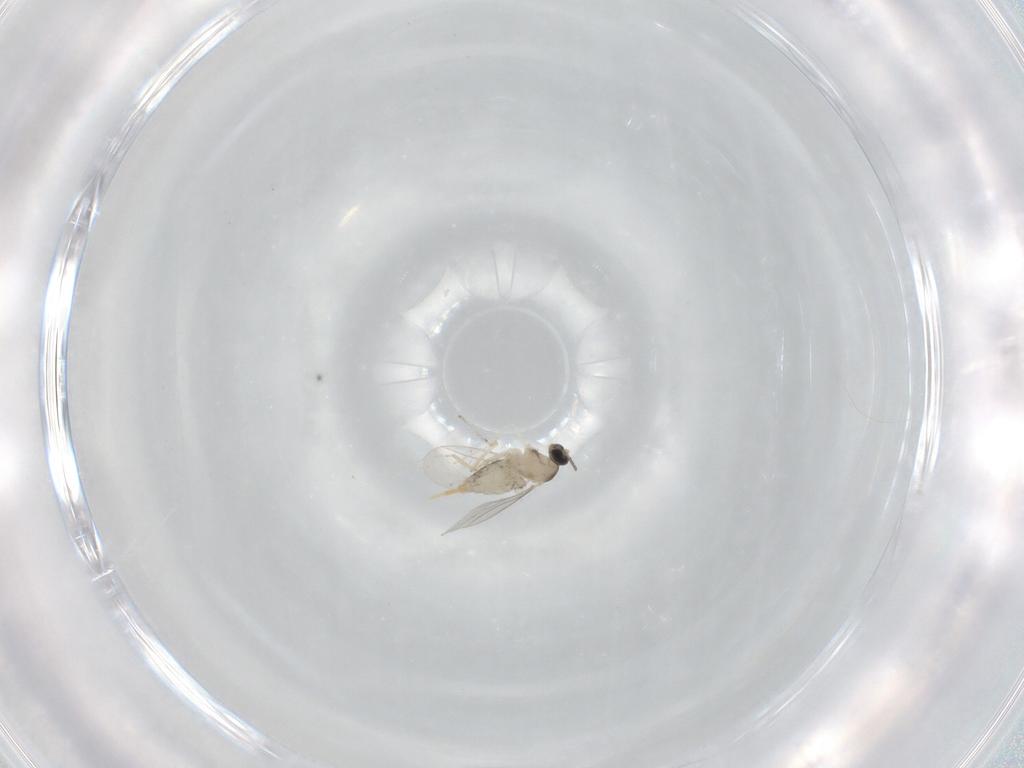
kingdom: Animalia
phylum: Arthropoda
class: Insecta
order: Diptera
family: Cecidomyiidae
